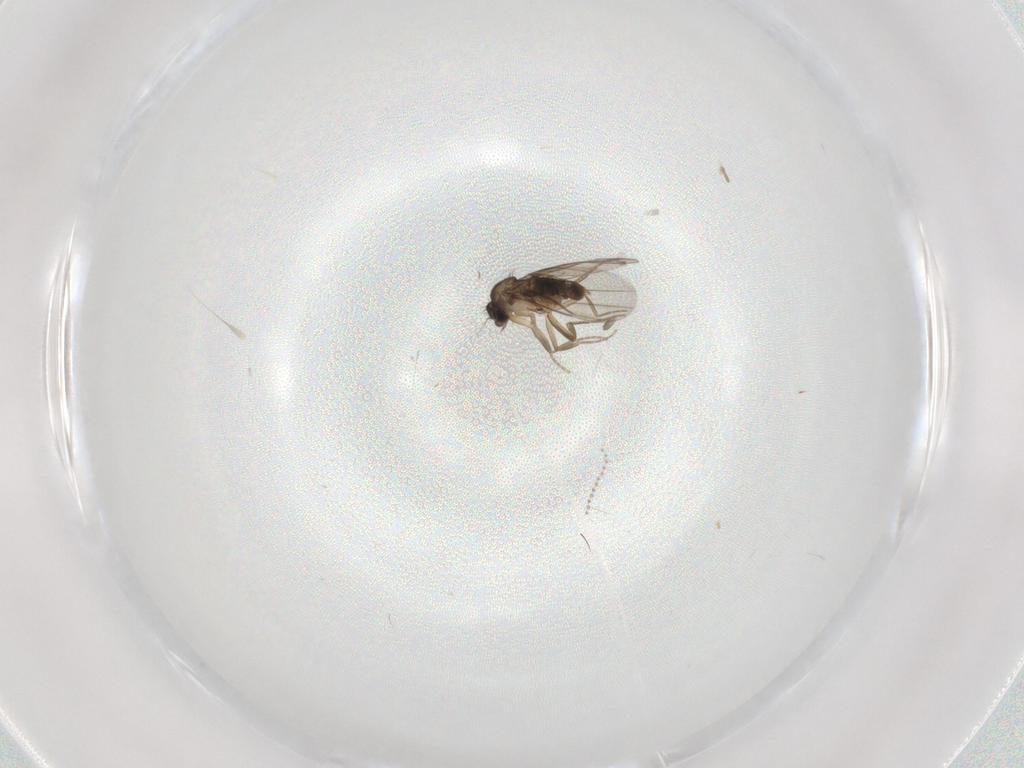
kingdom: Animalia
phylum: Arthropoda
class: Insecta
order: Diptera
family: Phoridae
